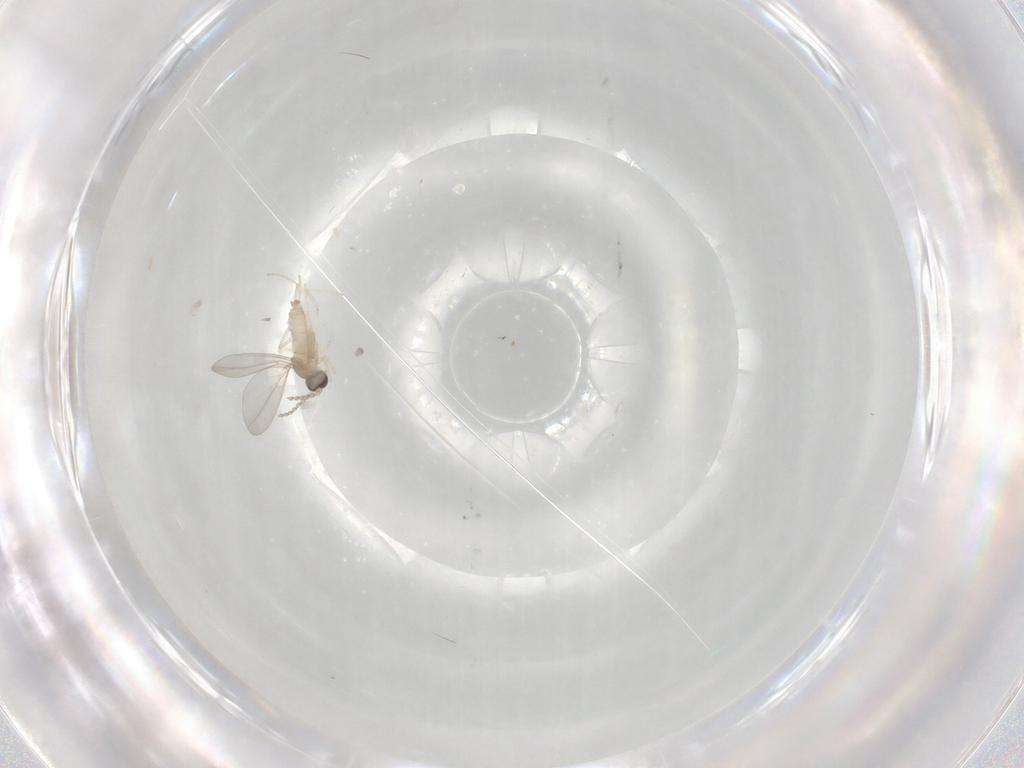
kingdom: Animalia
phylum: Arthropoda
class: Insecta
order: Diptera
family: Cecidomyiidae
